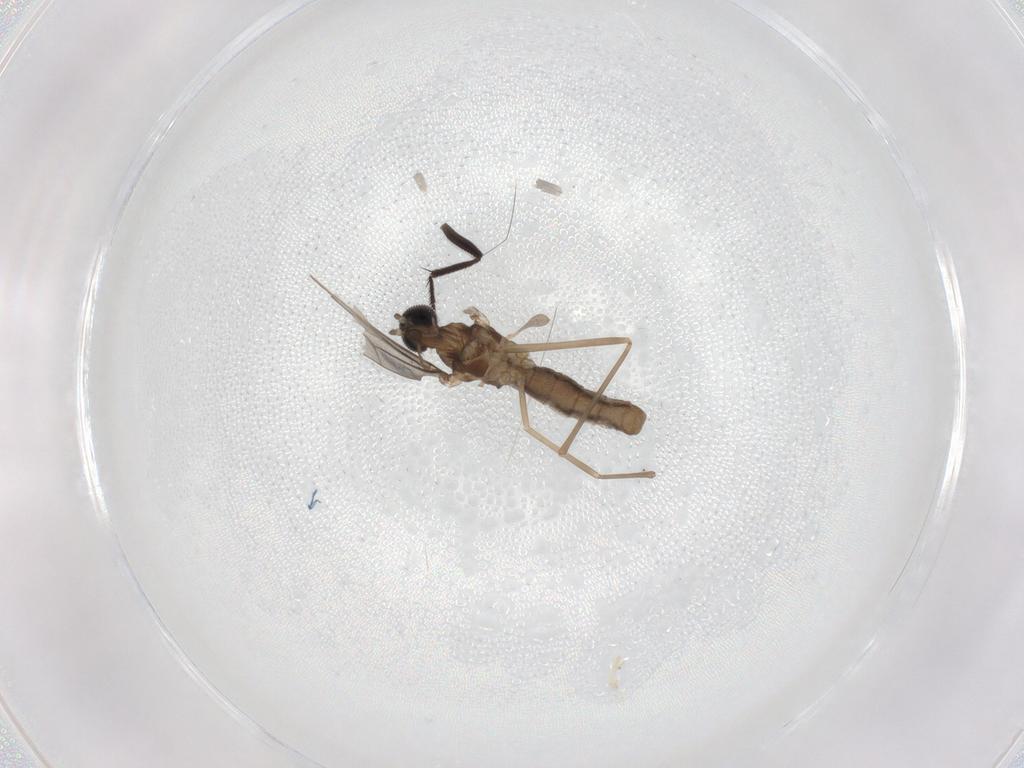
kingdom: Animalia
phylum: Arthropoda
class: Insecta
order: Diptera
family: Cecidomyiidae
